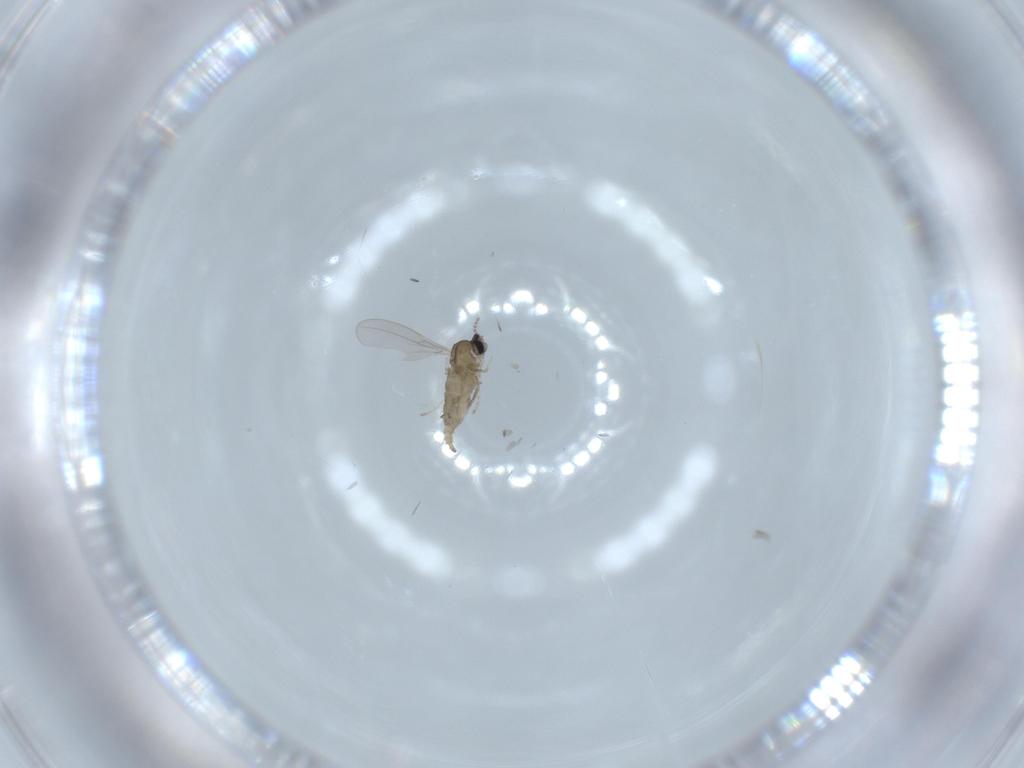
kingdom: Animalia
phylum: Arthropoda
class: Insecta
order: Diptera
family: Cecidomyiidae
